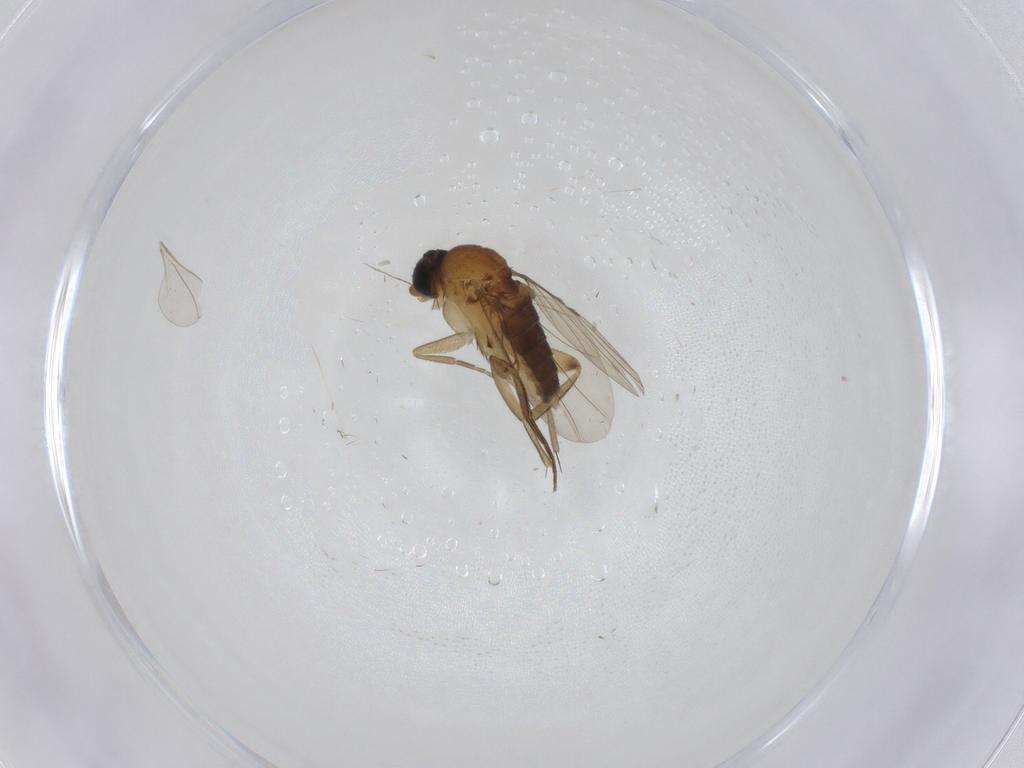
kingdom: Animalia
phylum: Arthropoda
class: Insecta
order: Diptera
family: Phoridae
